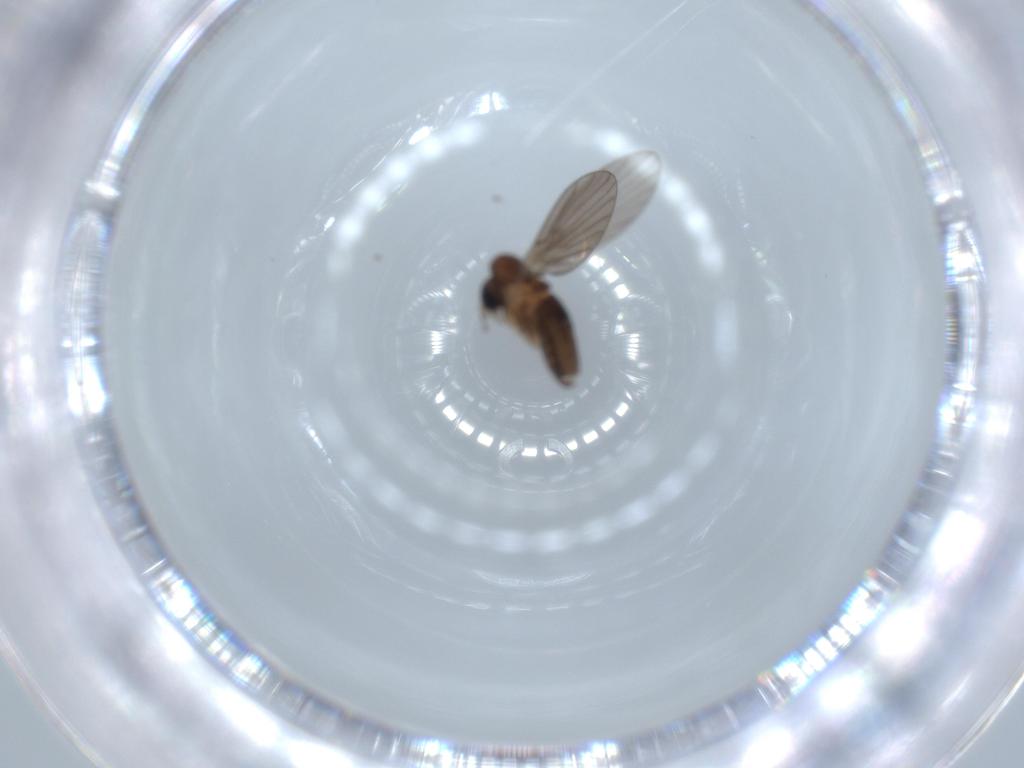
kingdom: Animalia
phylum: Arthropoda
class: Insecta
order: Diptera
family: Psychodidae
